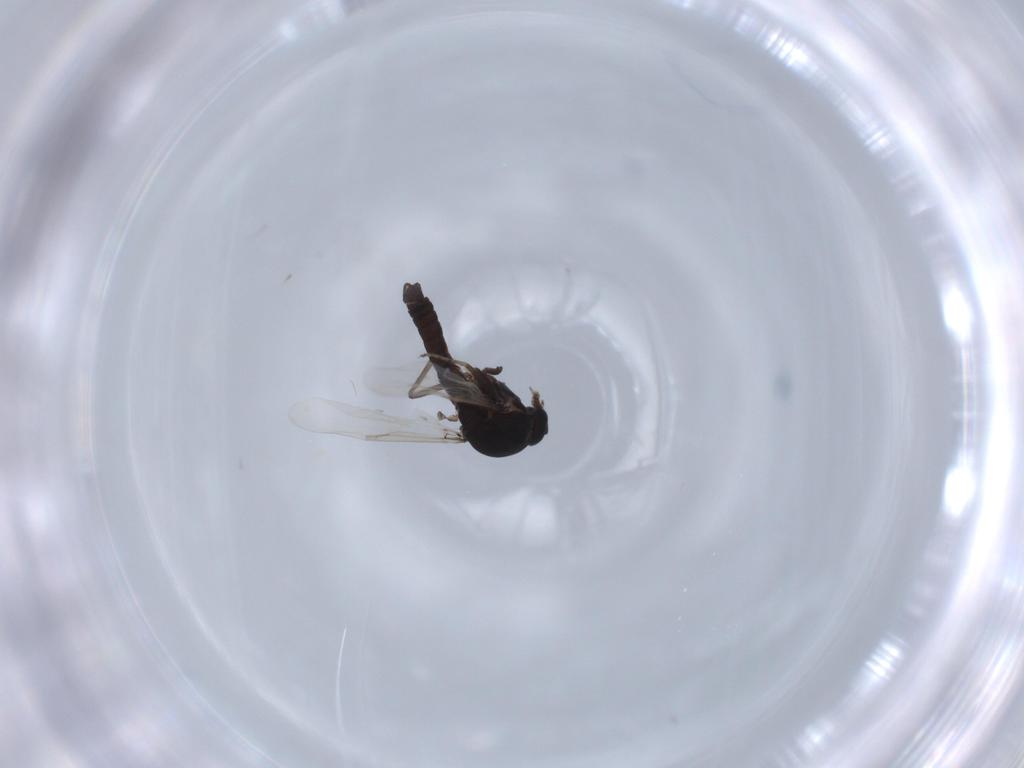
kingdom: Animalia
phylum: Arthropoda
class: Insecta
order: Diptera
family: Ceratopogonidae
